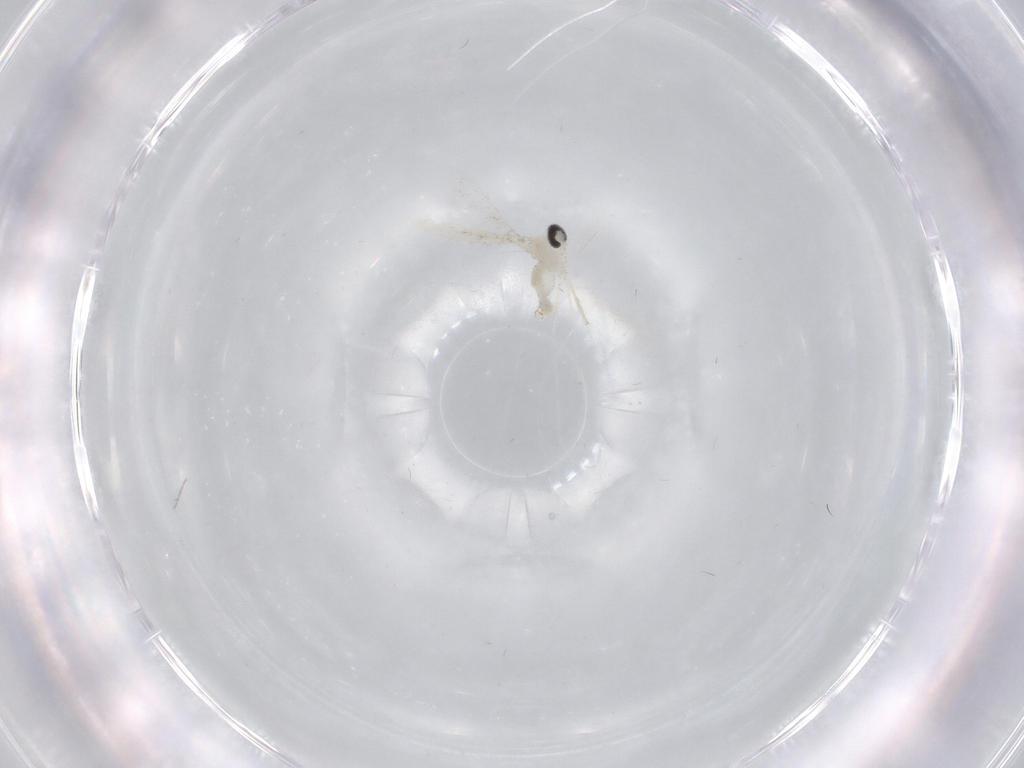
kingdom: Animalia
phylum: Arthropoda
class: Insecta
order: Diptera
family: Cecidomyiidae
